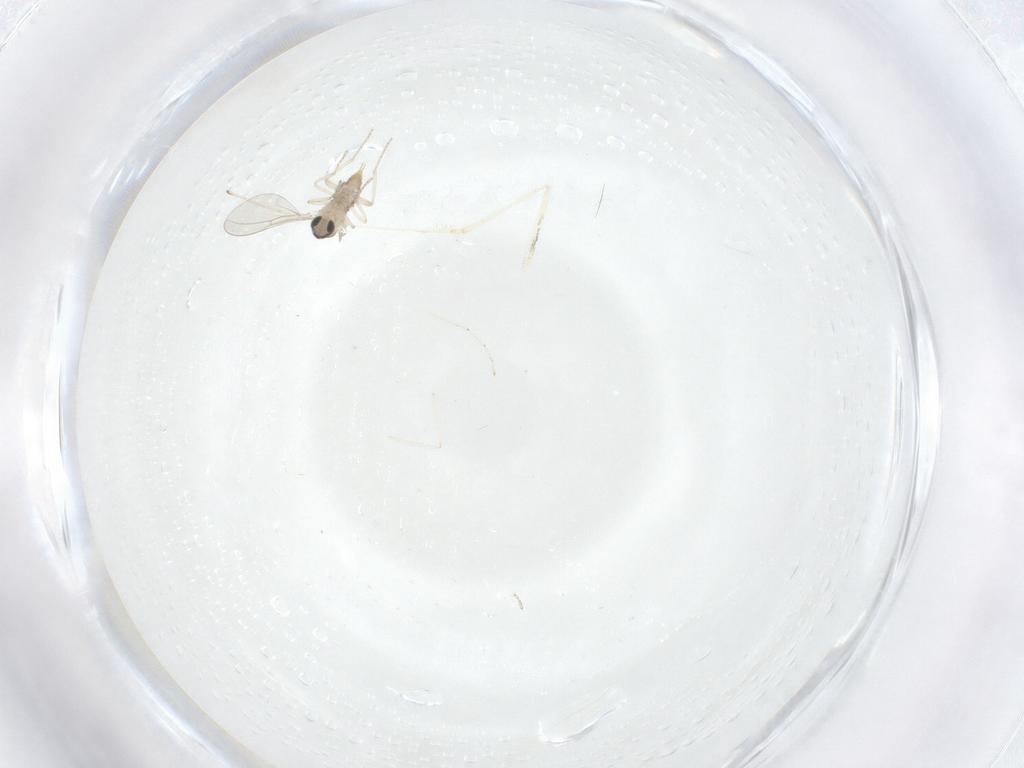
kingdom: Animalia
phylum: Arthropoda
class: Insecta
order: Diptera
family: Cecidomyiidae
